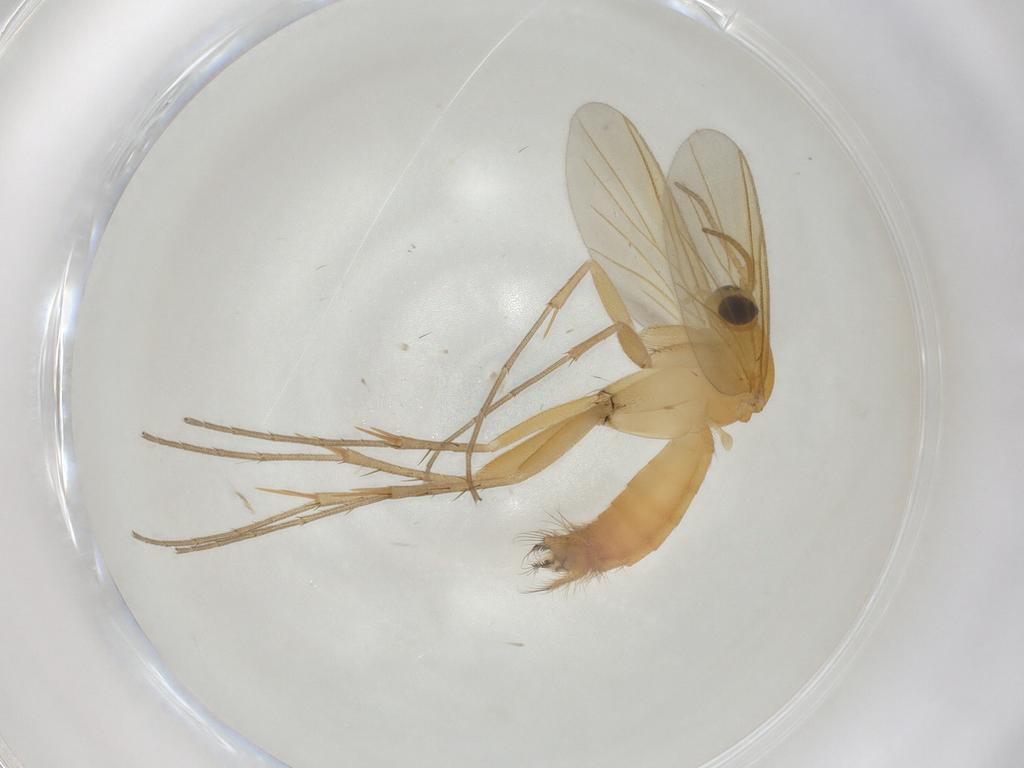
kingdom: Animalia
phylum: Arthropoda
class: Insecta
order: Diptera
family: Mycetophilidae
